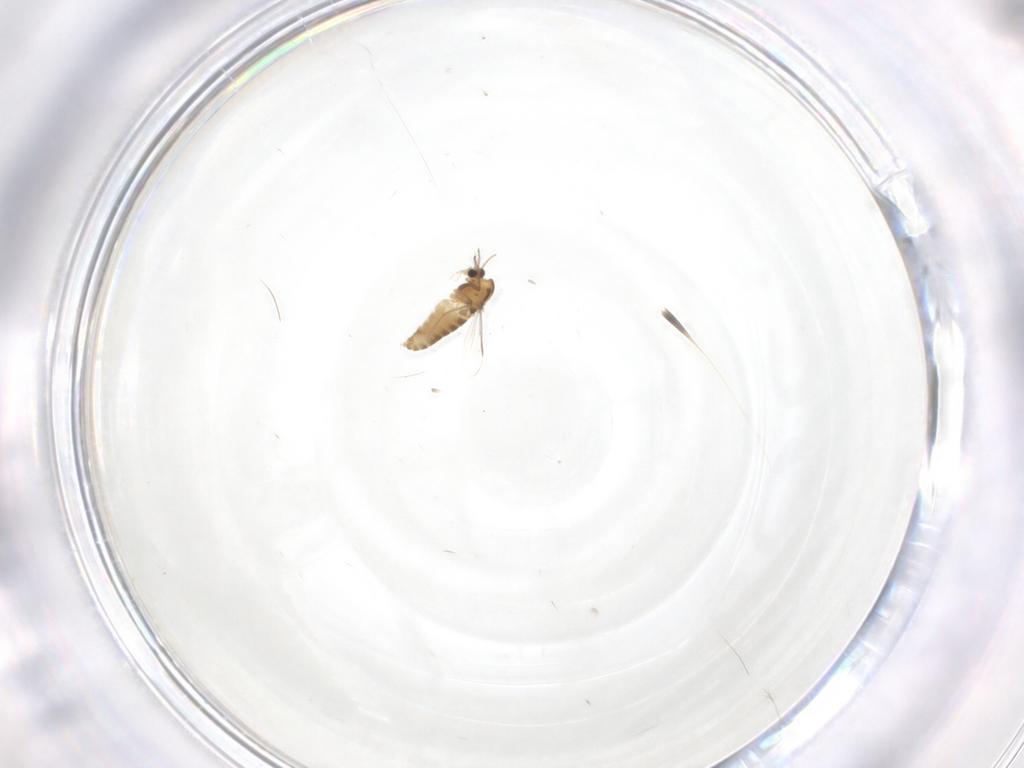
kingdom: Animalia
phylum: Arthropoda
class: Insecta
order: Diptera
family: Chironomidae
